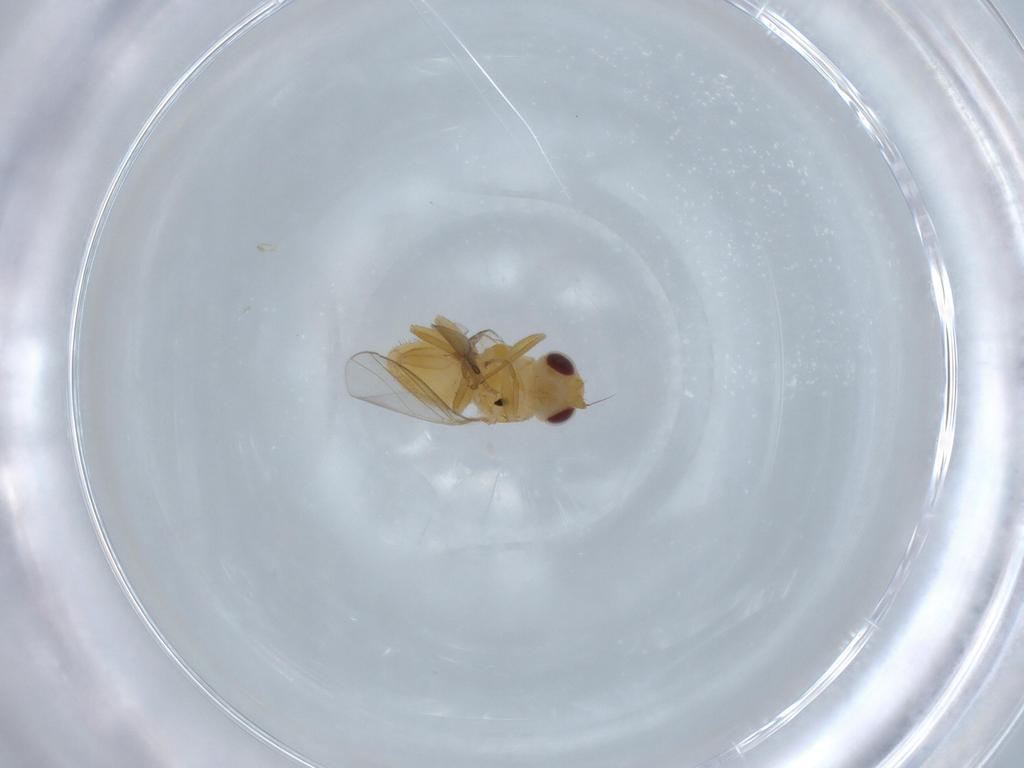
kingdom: Animalia
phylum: Arthropoda
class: Insecta
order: Diptera
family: Chloropidae
